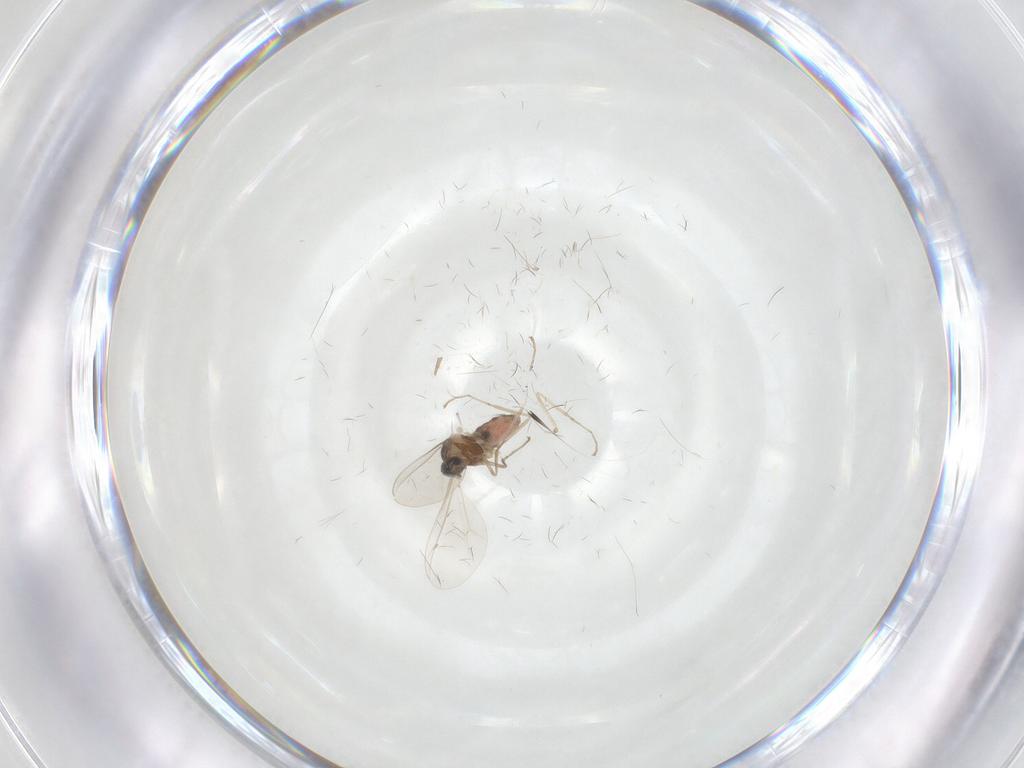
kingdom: Animalia
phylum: Arthropoda
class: Insecta
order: Diptera
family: Cecidomyiidae
